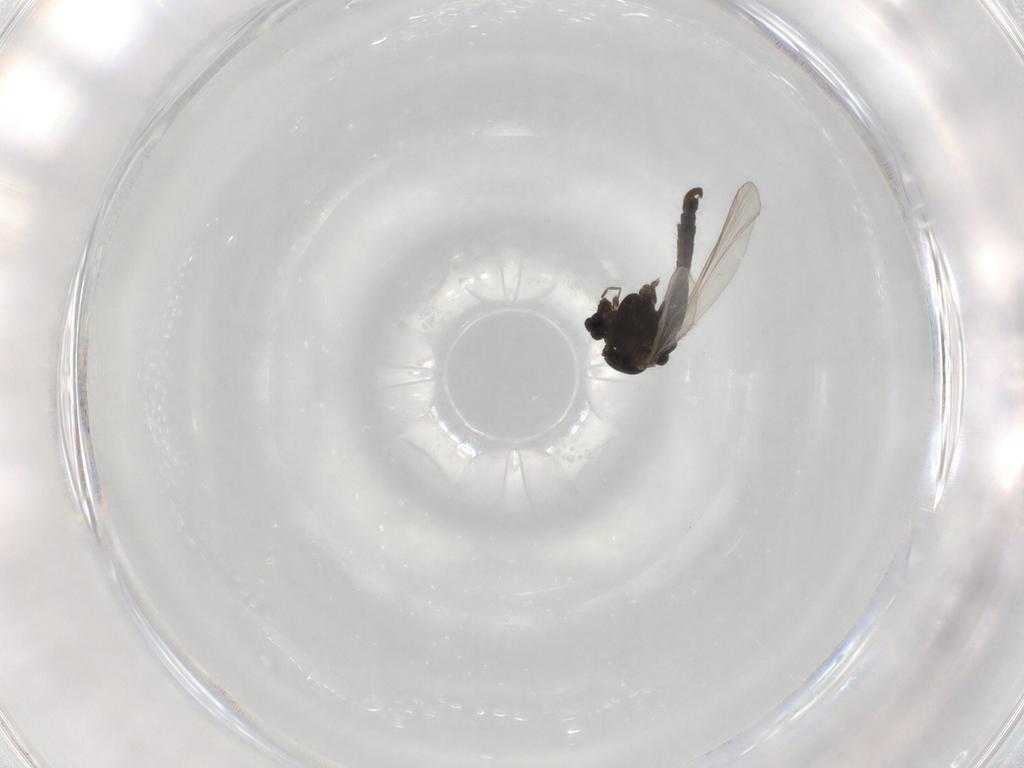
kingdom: Animalia
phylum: Arthropoda
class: Insecta
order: Diptera
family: Chironomidae
